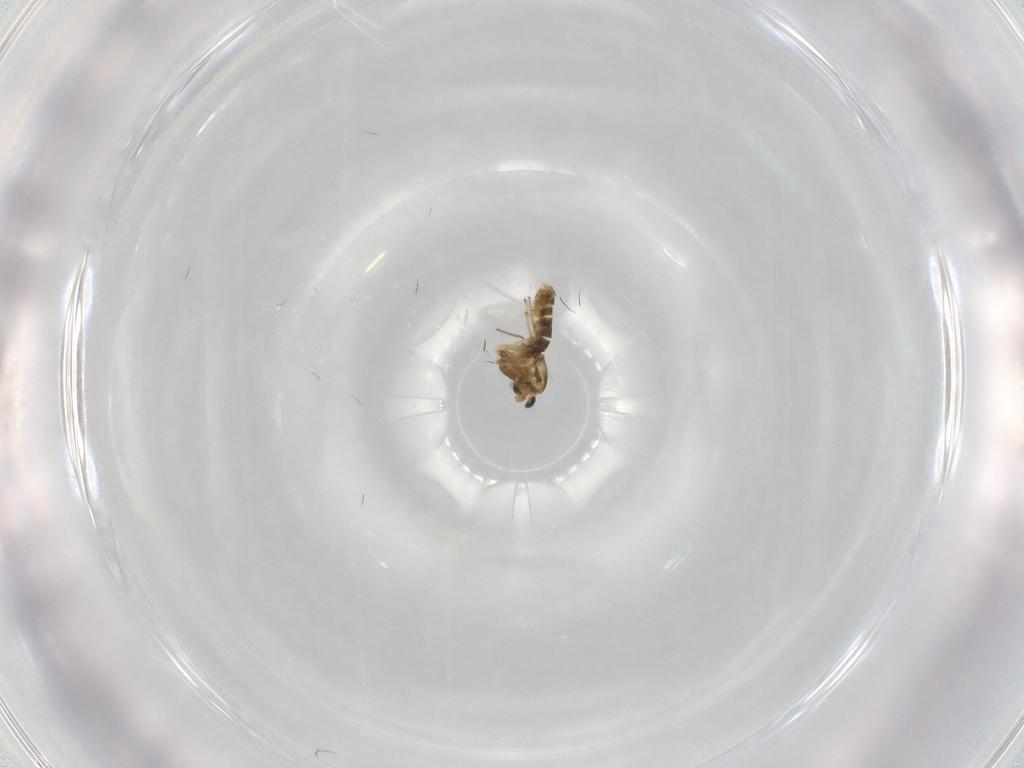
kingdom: Animalia
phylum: Arthropoda
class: Insecta
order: Diptera
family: Chironomidae
